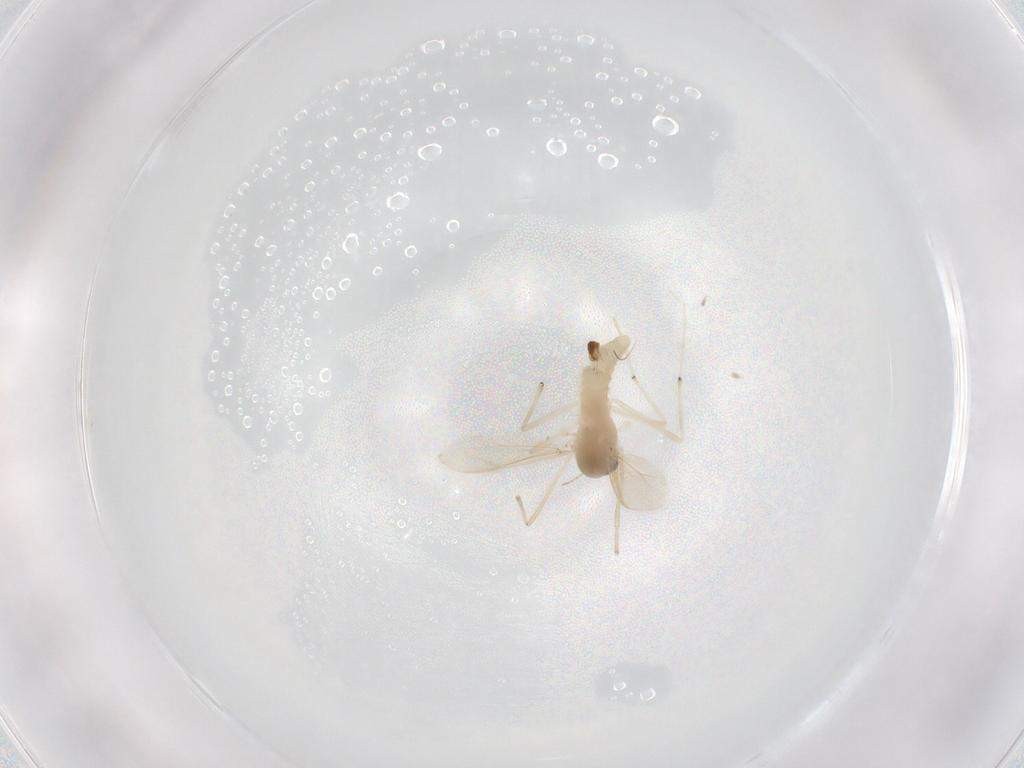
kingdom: Animalia
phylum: Arthropoda
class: Insecta
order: Diptera
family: Chironomidae
